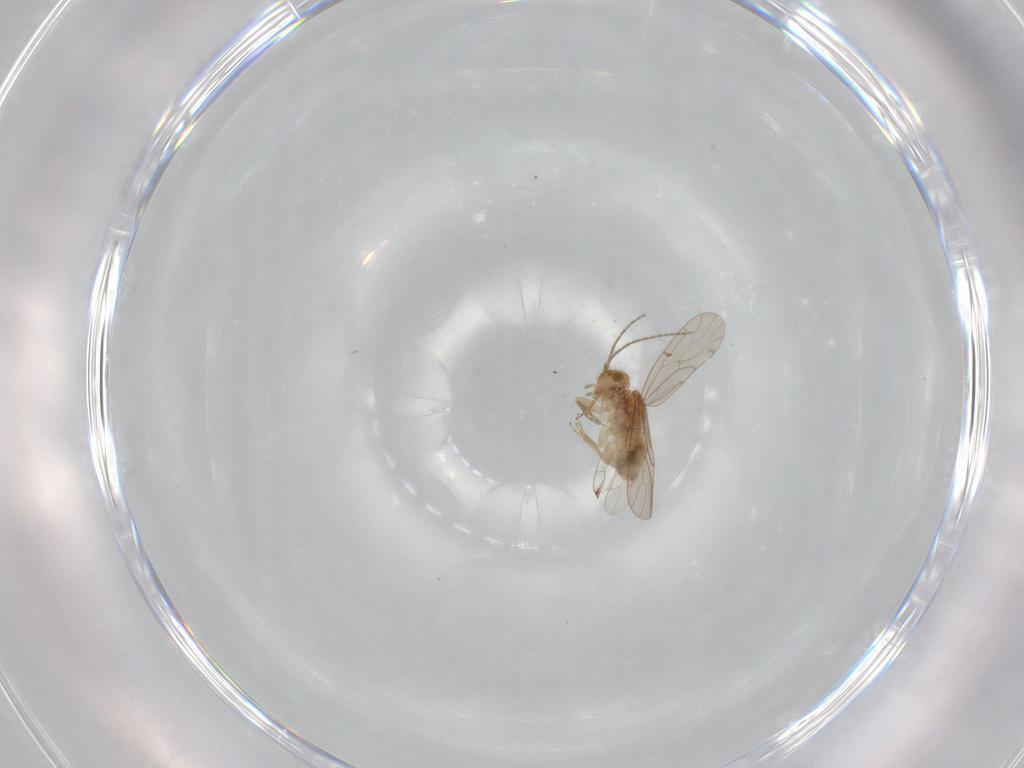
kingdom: Animalia
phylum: Arthropoda
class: Insecta
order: Psocodea
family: Ectopsocidae
